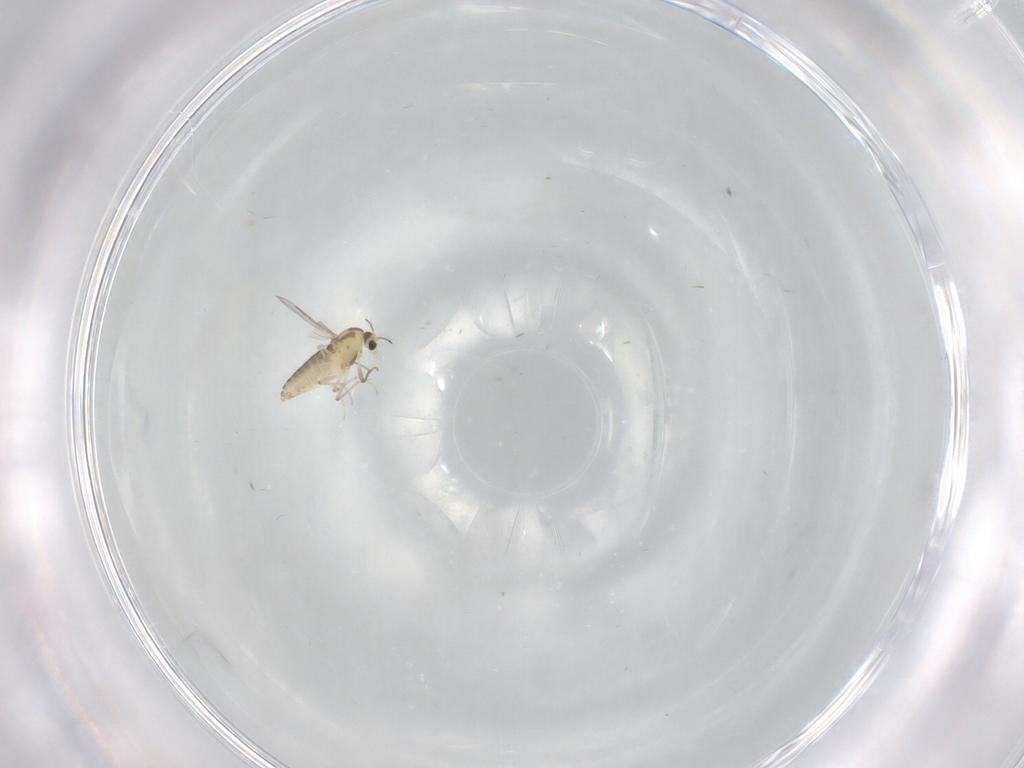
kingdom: Animalia
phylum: Arthropoda
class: Insecta
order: Diptera
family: Chironomidae
